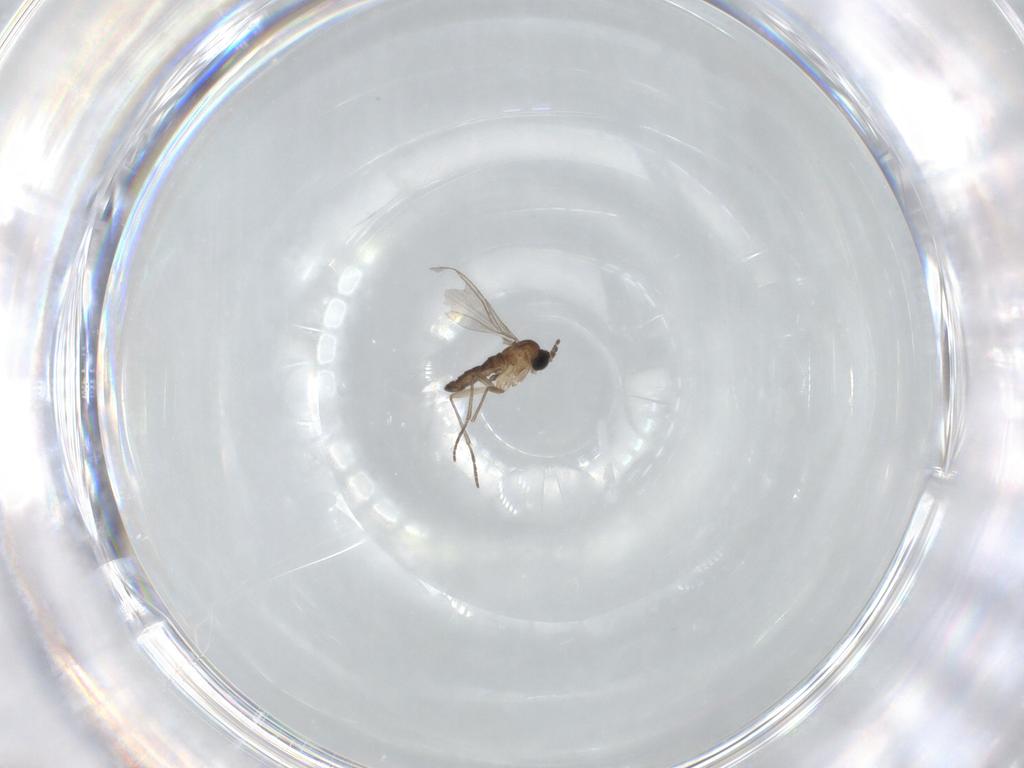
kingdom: Animalia
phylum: Arthropoda
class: Insecta
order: Diptera
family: Sciaridae
